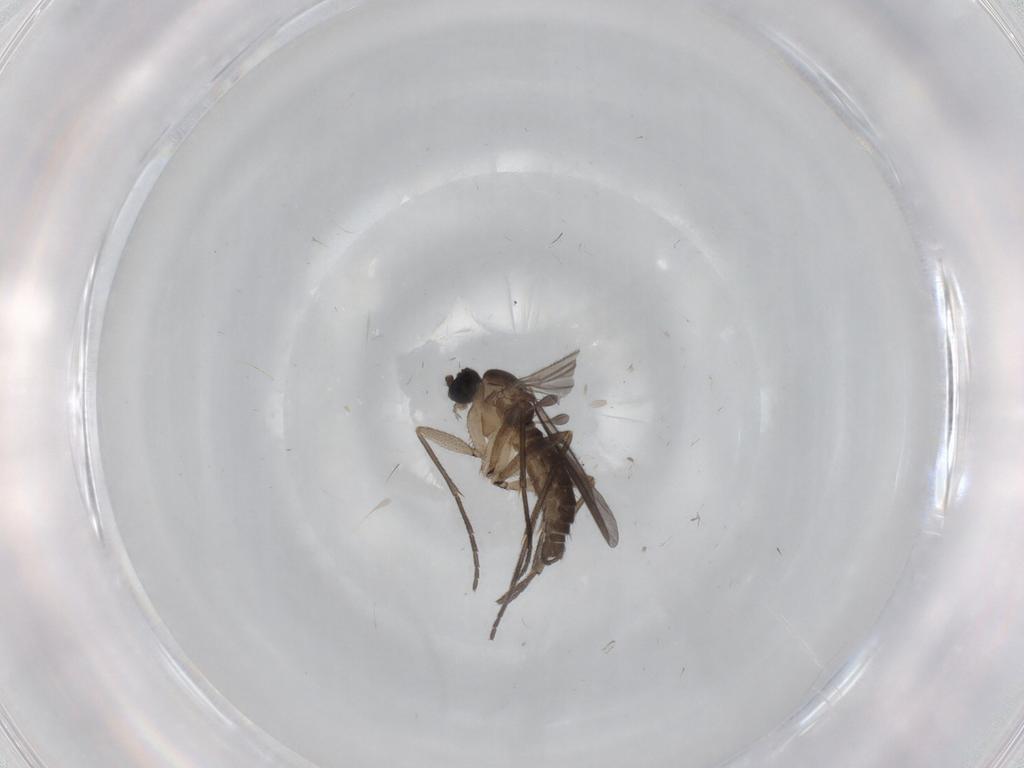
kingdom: Animalia
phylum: Arthropoda
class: Insecta
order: Diptera
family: Sciaridae
